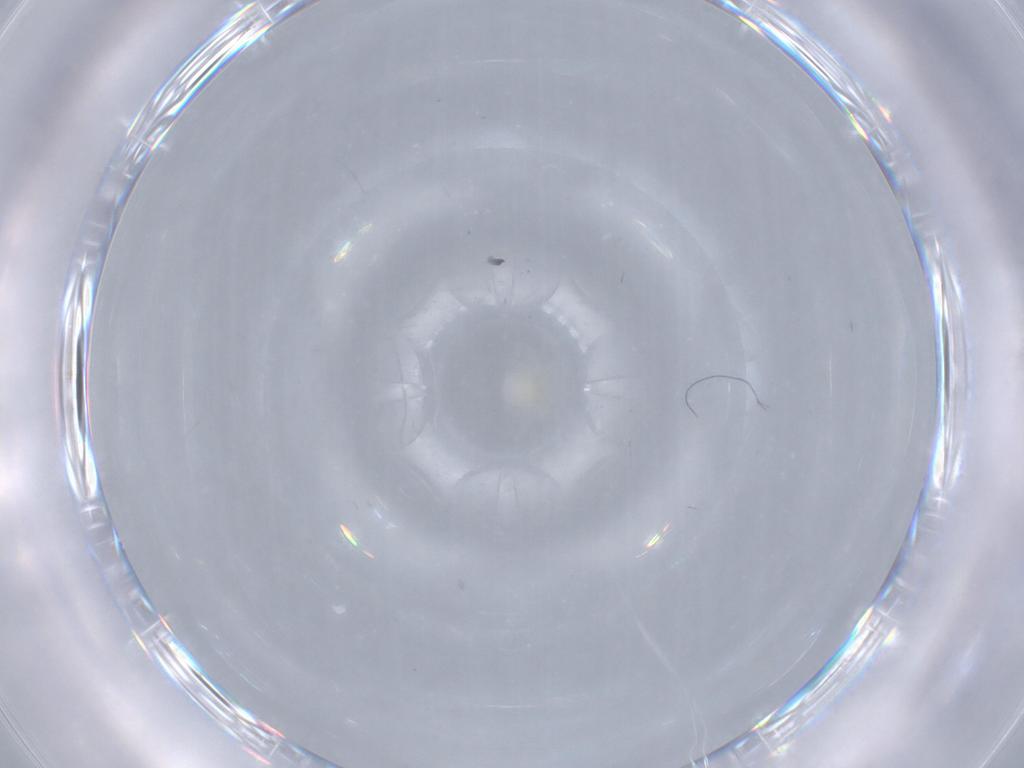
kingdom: Animalia
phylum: Arthropoda
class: Arachnida
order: Trombidiformes
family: Sperchontidae
